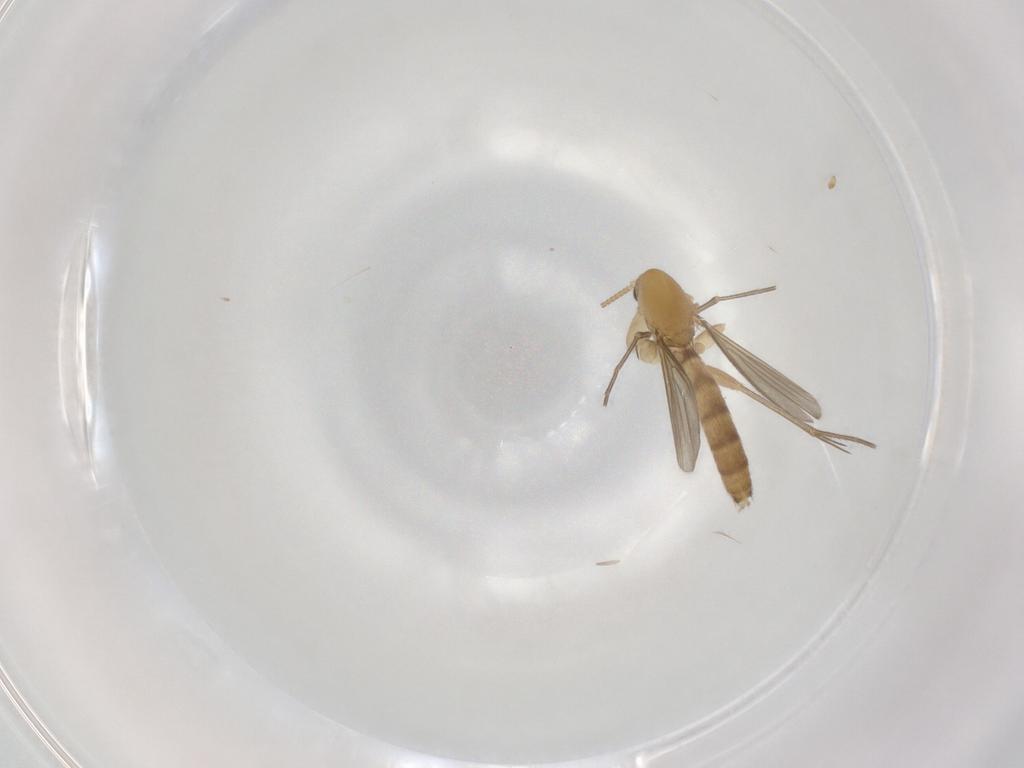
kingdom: Animalia
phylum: Arthropoda
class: Insecta
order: Diptera
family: Mycetophilidae
